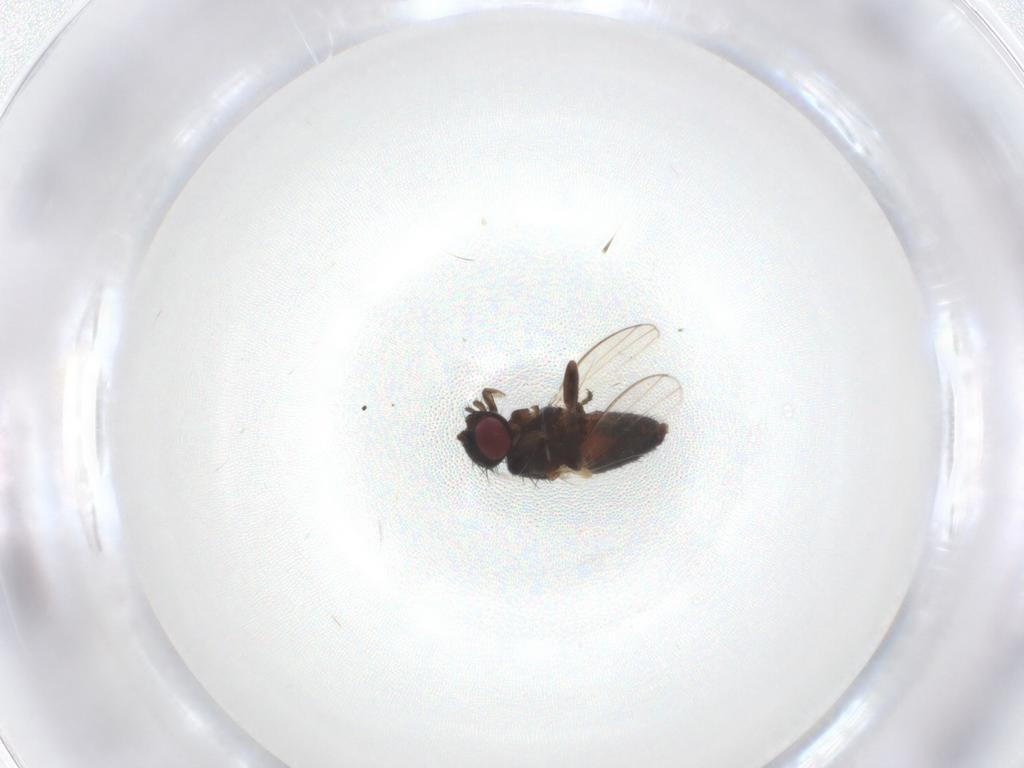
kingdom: Animalia
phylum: Arthropoda
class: Insecta
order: Diptera
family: Milichiidae
